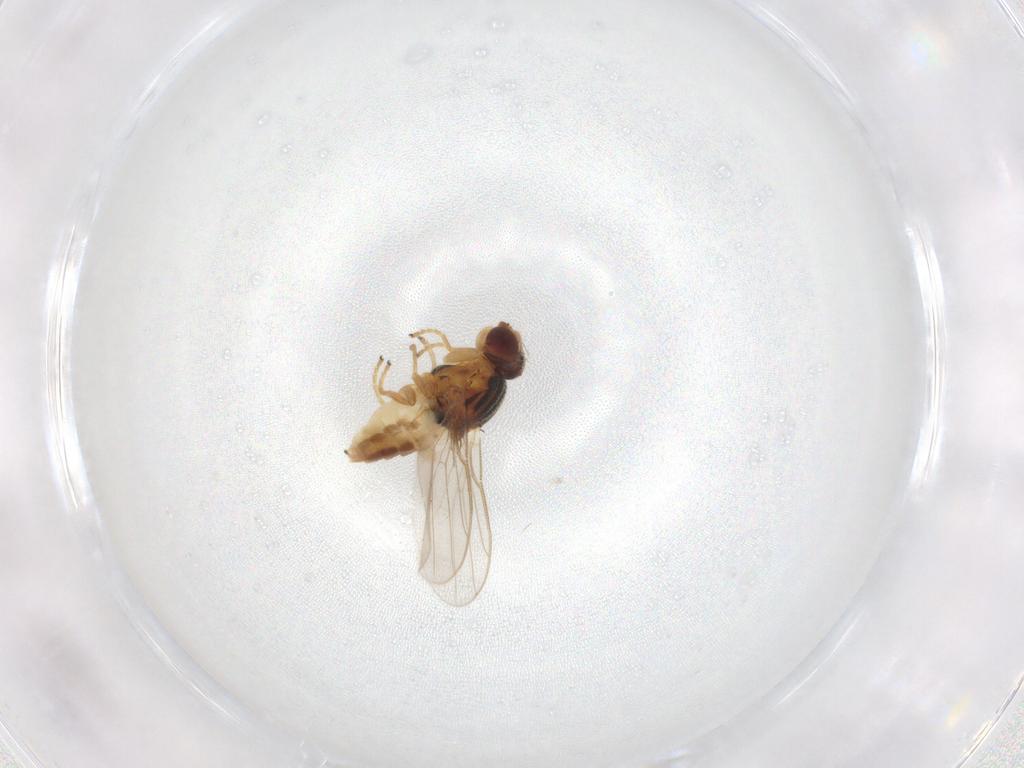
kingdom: Animalia
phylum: Arthropoda
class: Insecta
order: Diptera
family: Chloropidae
